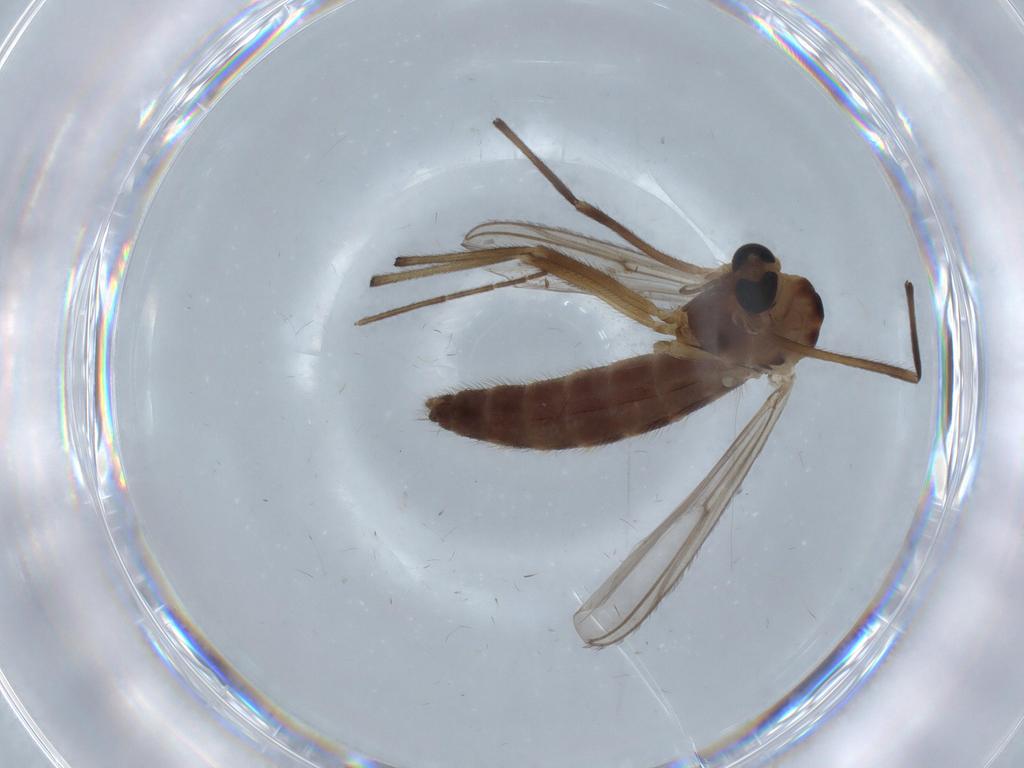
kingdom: Animalia
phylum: Arthropoda
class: Insecta
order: Diptera
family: Chironomidae
